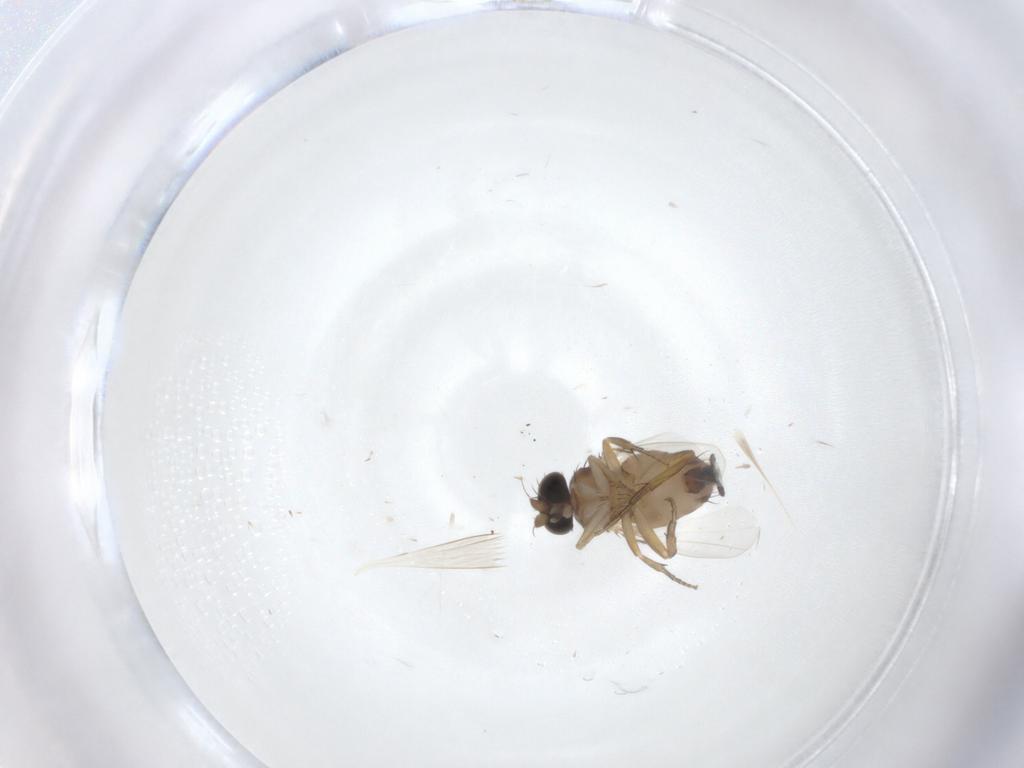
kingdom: Animalia
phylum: Arthropoda
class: Insecta
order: Diptera
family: Phoridae
